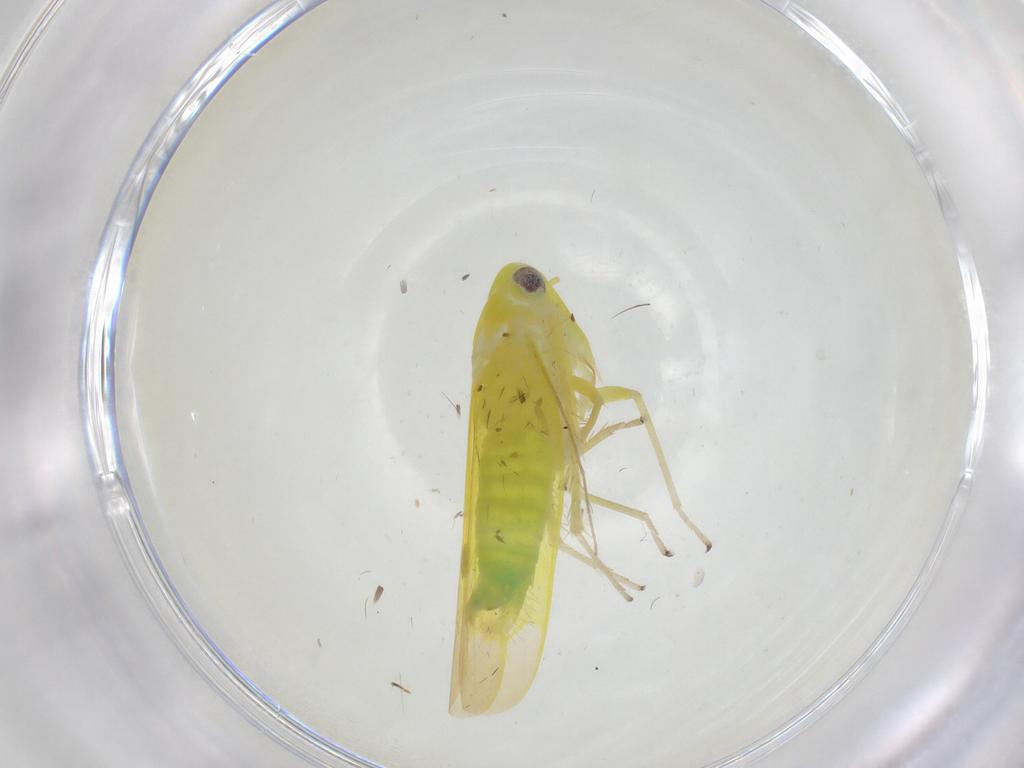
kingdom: Animalia
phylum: Arthropoda
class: Insecta
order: Hemiptera
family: Cicadellidae
